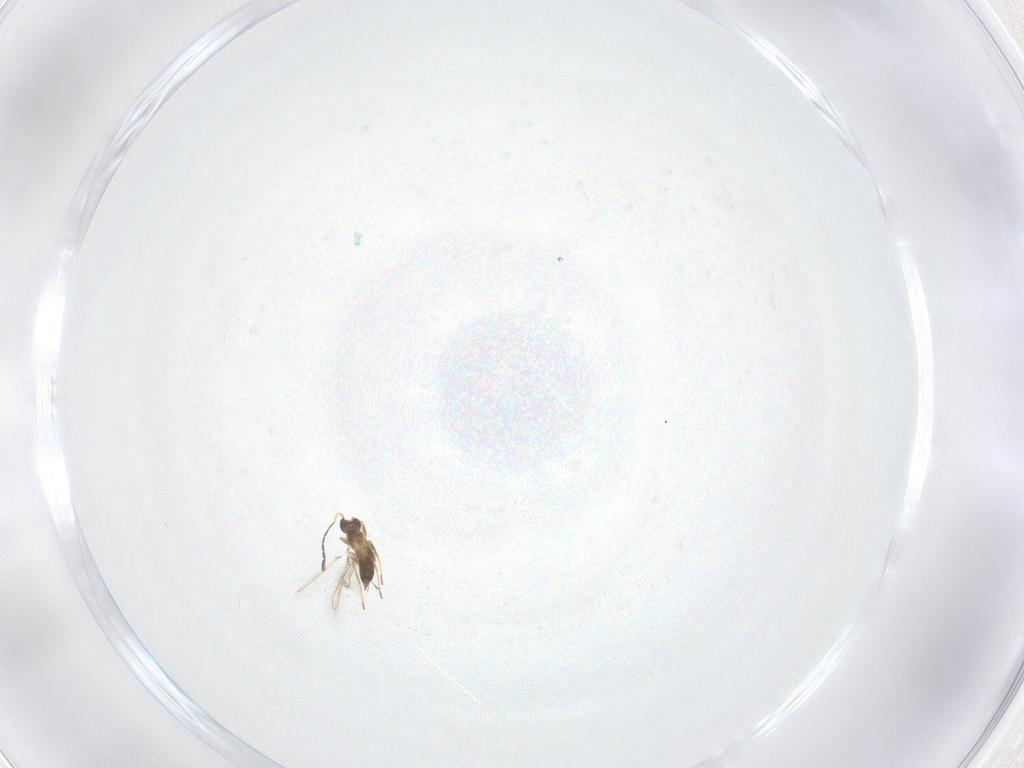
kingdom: Animalia
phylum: Arthropoda
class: Insecta
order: Hymenoptera
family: Mymaridae
